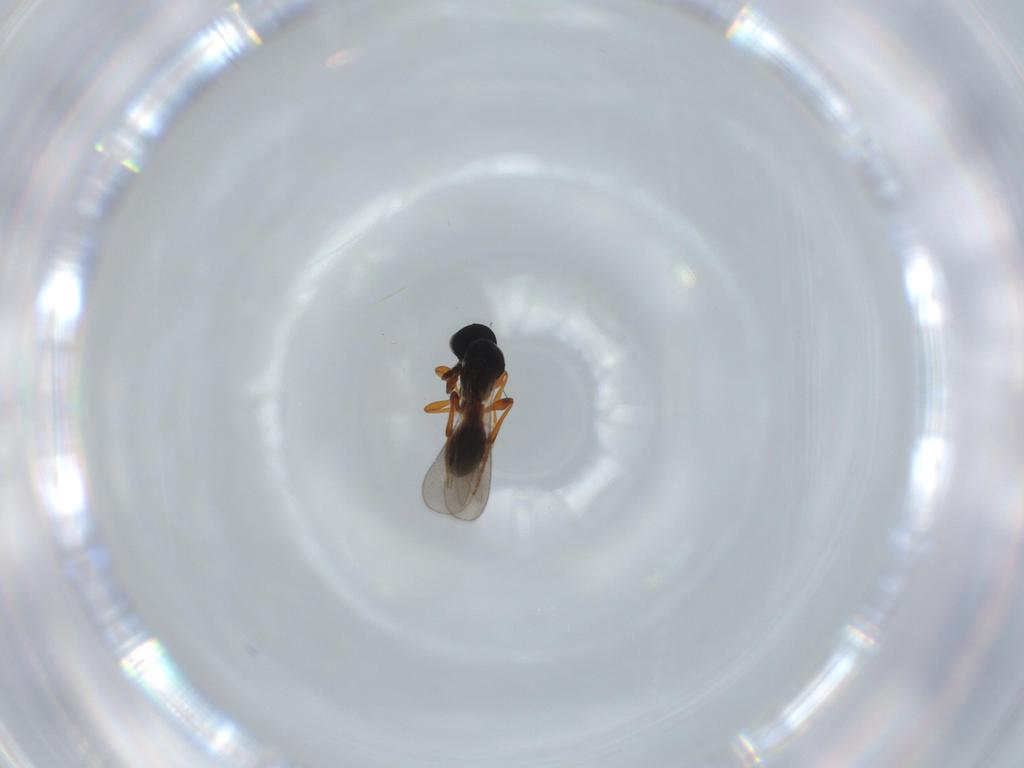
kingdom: Animalia
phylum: Arthropoda
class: Insecta
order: Hymenoptera
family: Platygastridae
